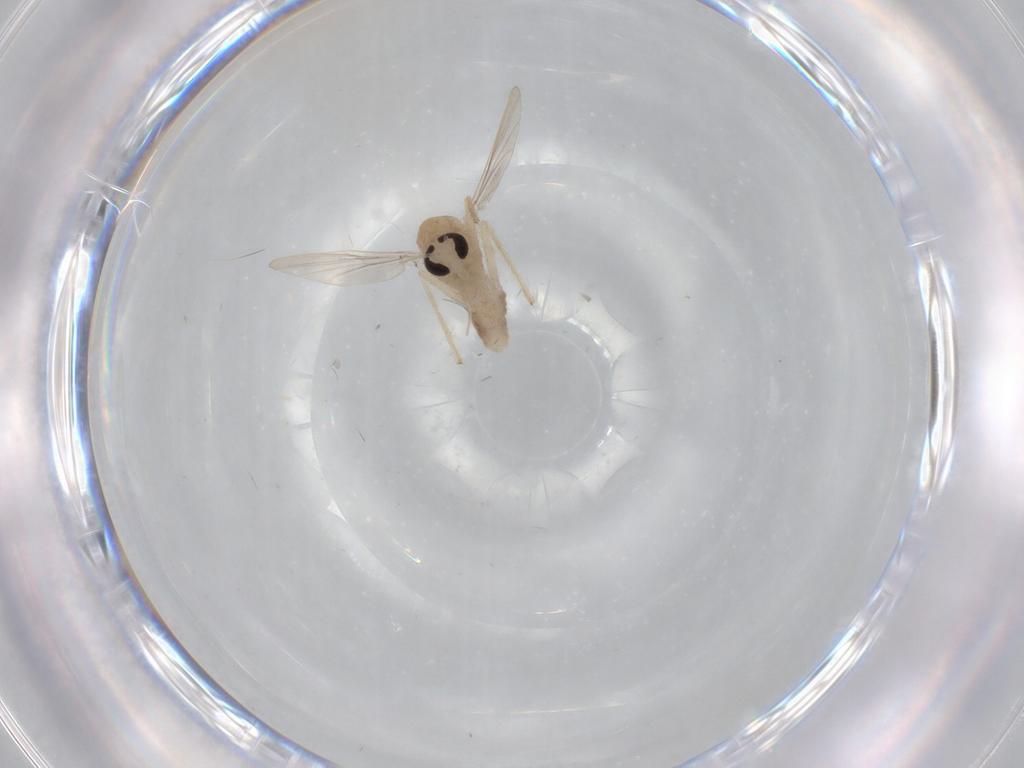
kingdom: Animalia
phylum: Arthropoda
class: Insecta
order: Diptera
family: Chironomidae
